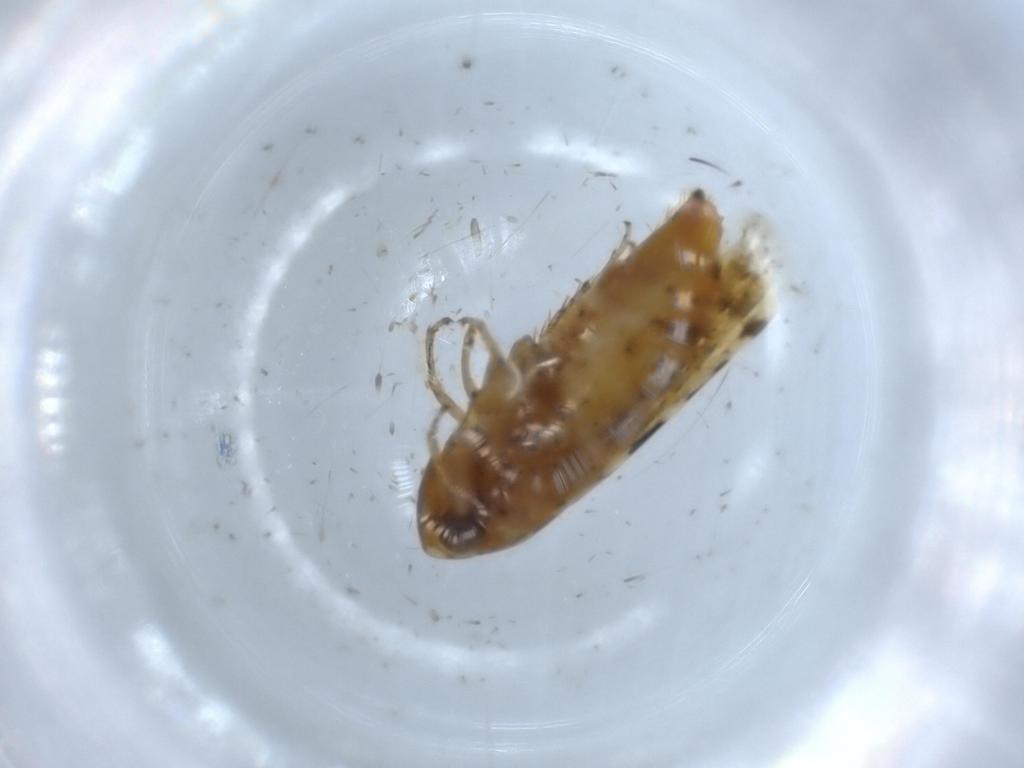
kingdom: Animalia
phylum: Arthropoda
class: Insecta
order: Hemiptera
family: Cicadellidae
